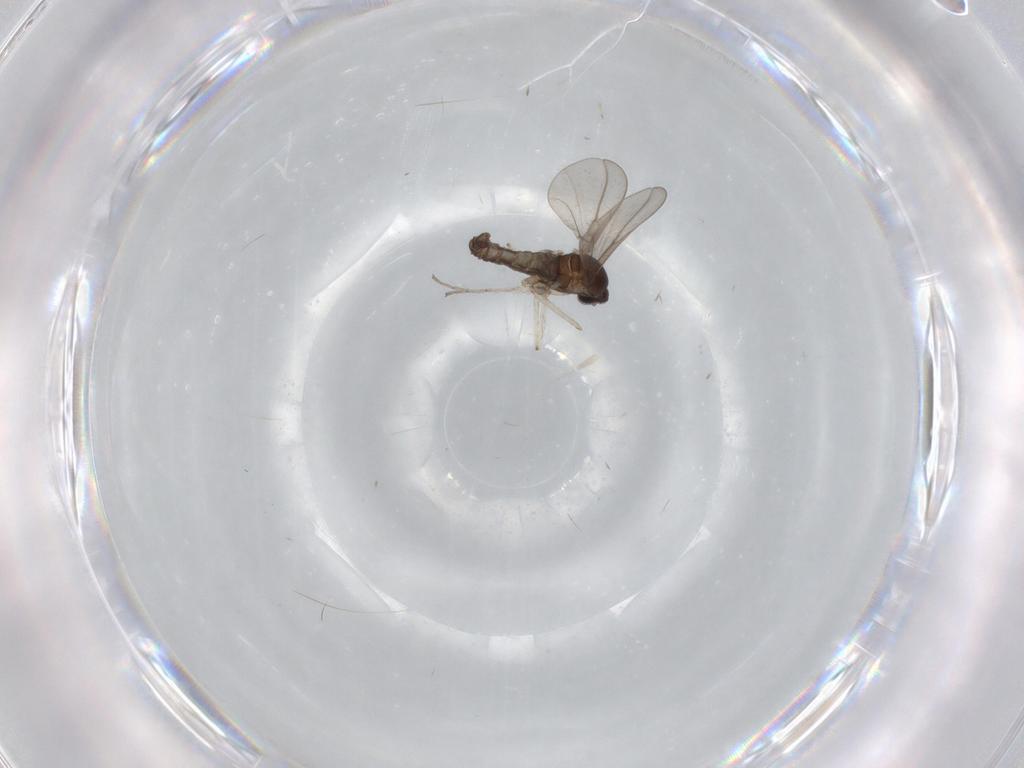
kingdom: Animalia
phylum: Arthropoda
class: Insecta
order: Diptera
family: Cecidomyiidae
